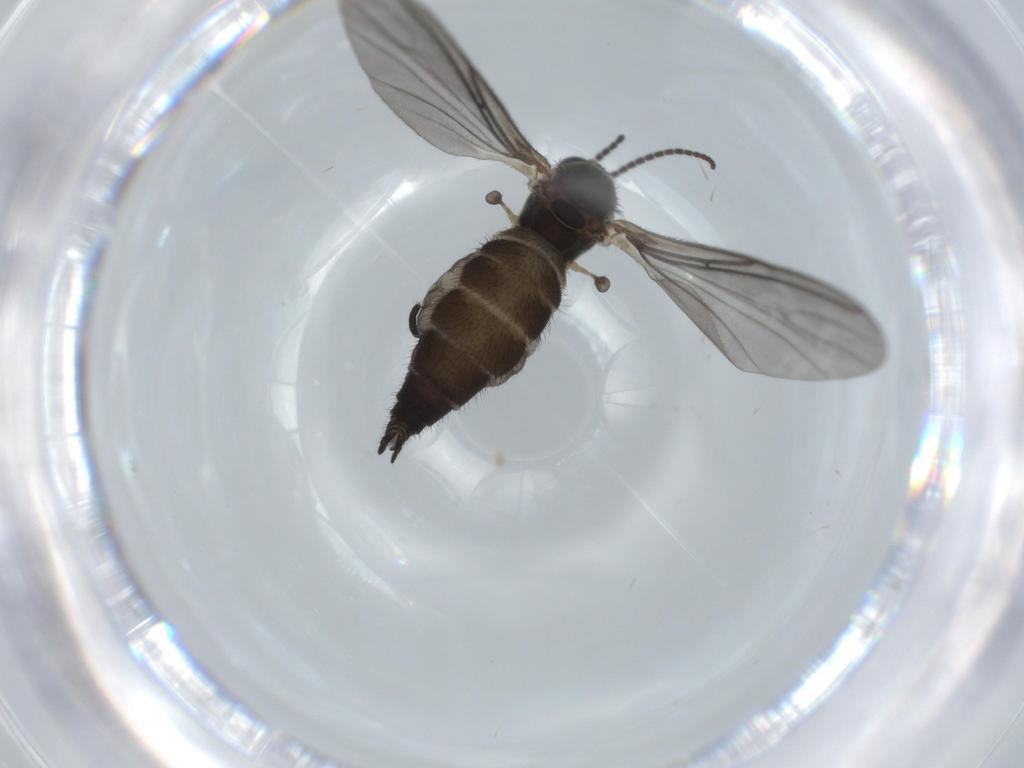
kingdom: Animalia
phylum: Arthropoda
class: Insecta
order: Diptera
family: Sciaridae
